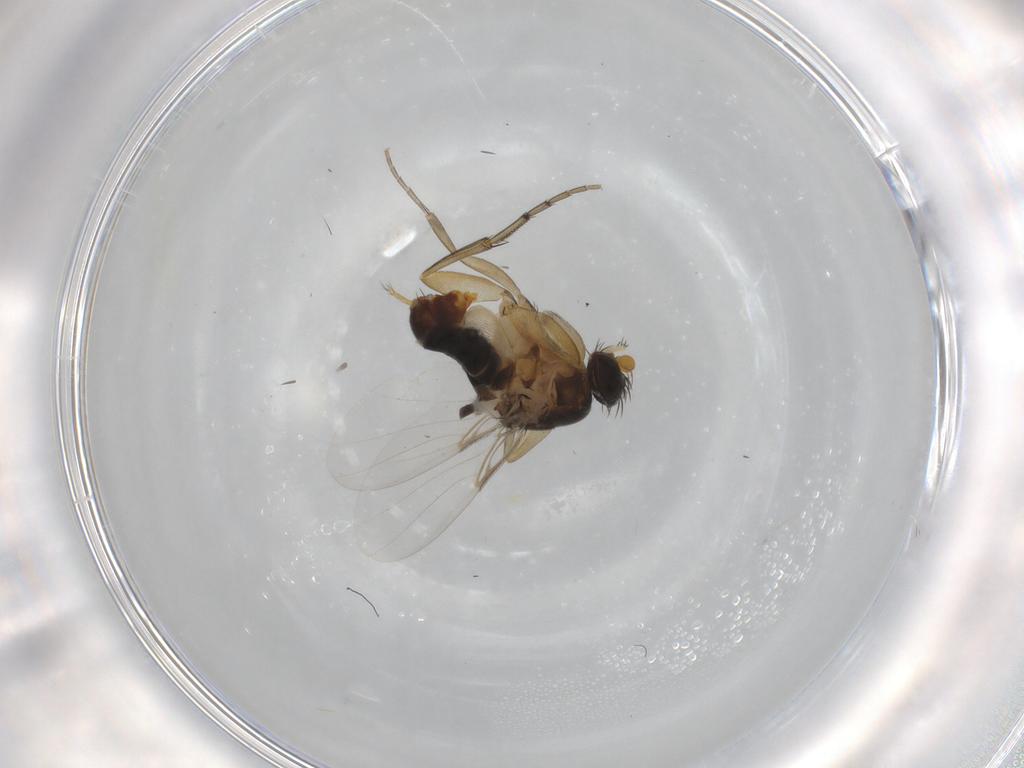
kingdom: Animalia
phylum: Arthropoda
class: Insecta
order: Diptera
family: Phoridae
